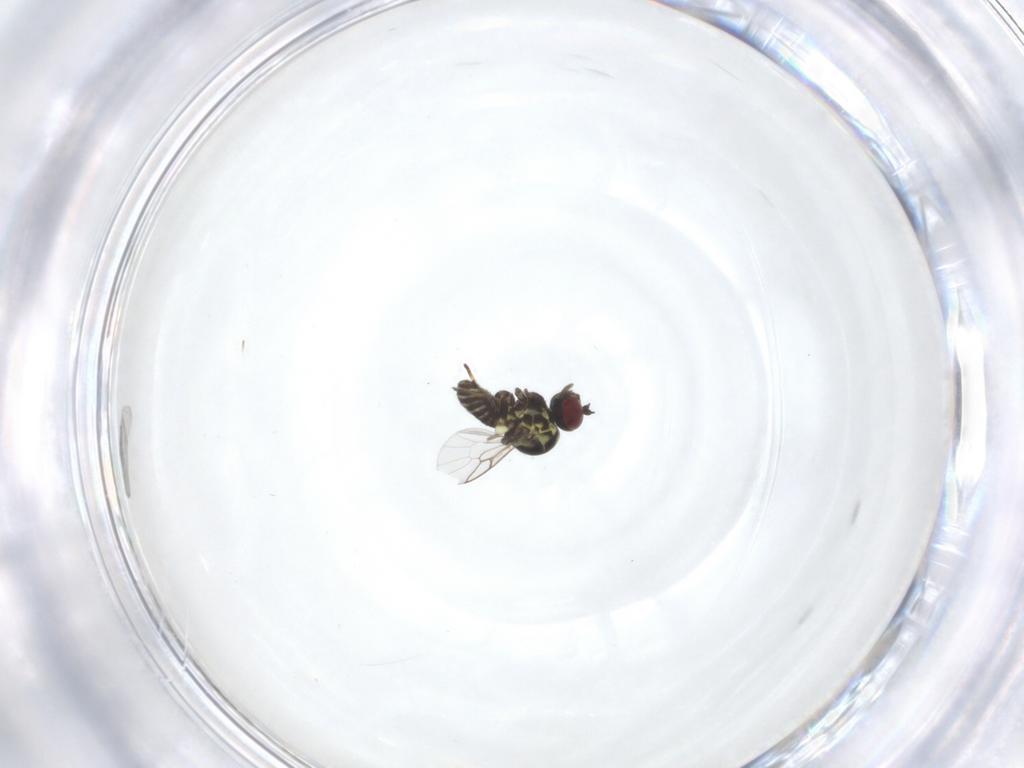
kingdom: Animalia
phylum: Arthropoda
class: Insecta
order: Diptera
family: Mythicomyiidae
